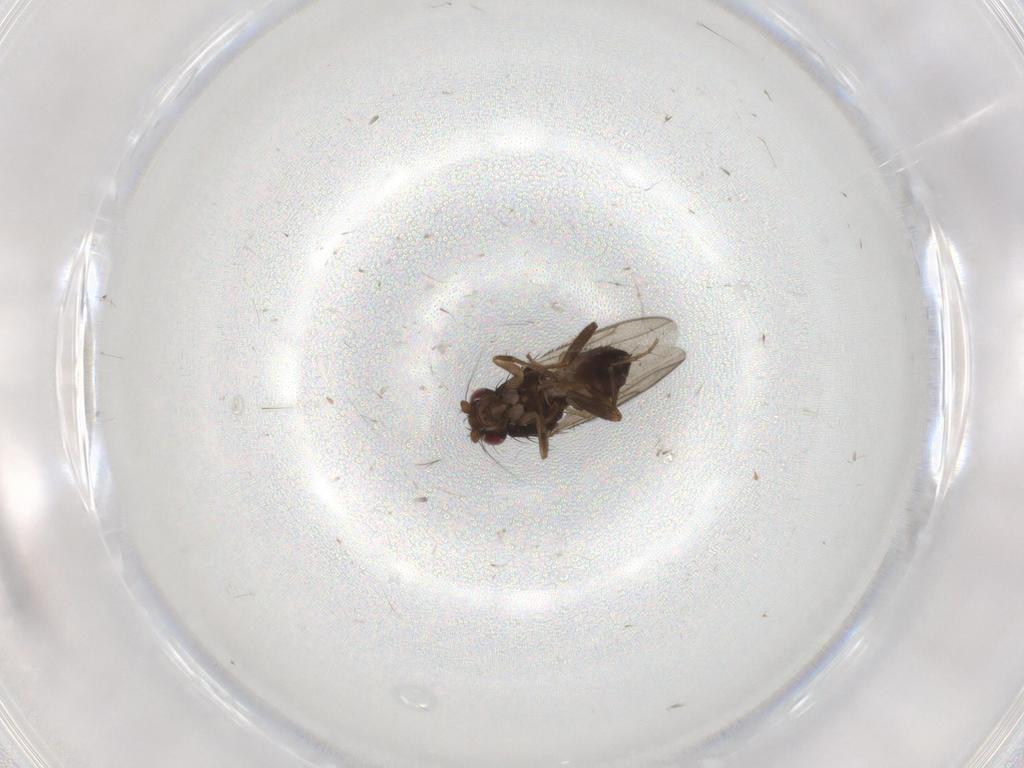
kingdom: Animalia
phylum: Arthropoda
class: Insecta
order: Diptera
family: Sphaeroceridae
